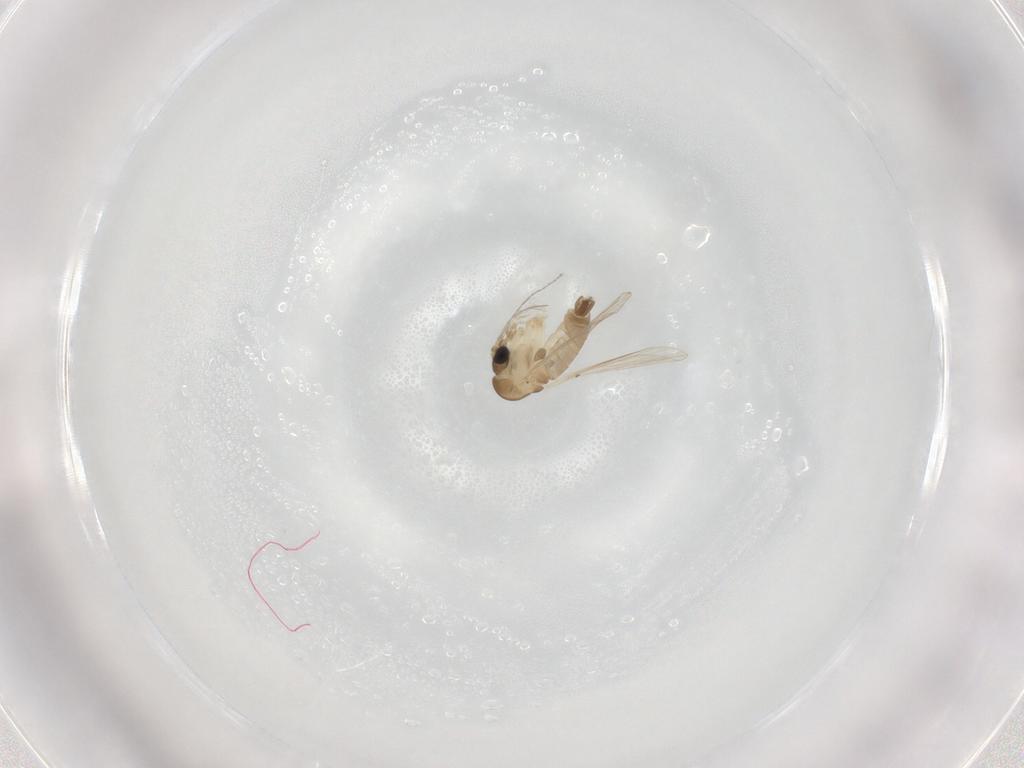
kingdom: Animalia
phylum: Arthropoda
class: Insecta
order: Diptera
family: Psychodidae
